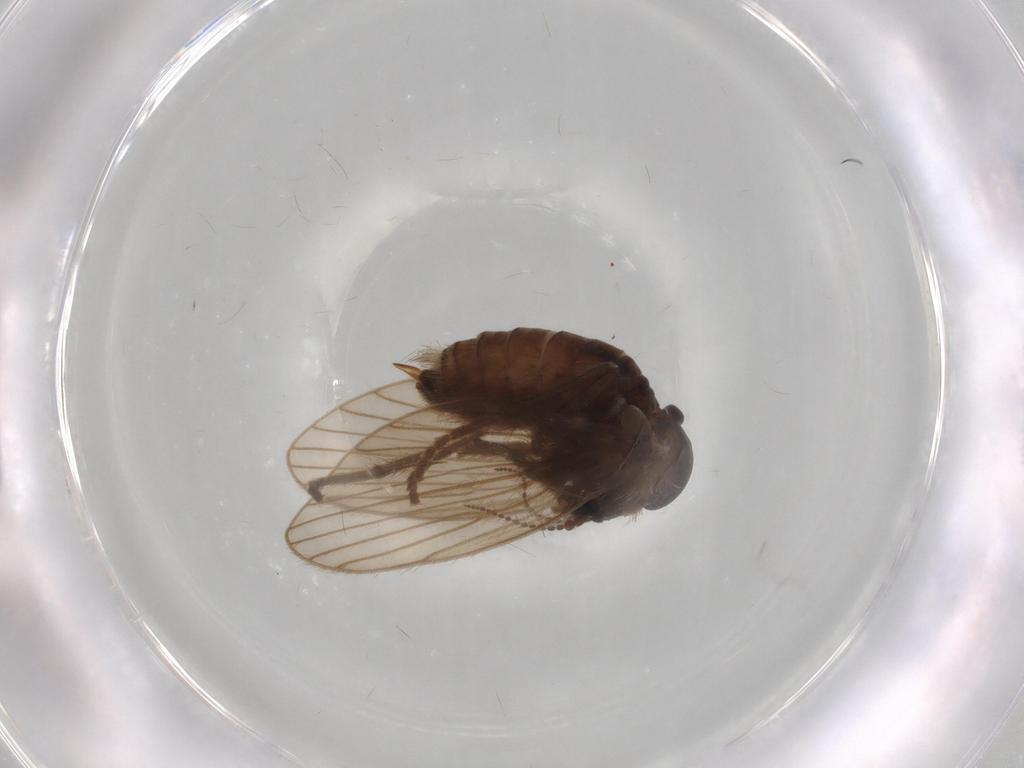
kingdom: Animalia
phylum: Arthropoda
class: Insecta
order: Diptera
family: Psychodidae
